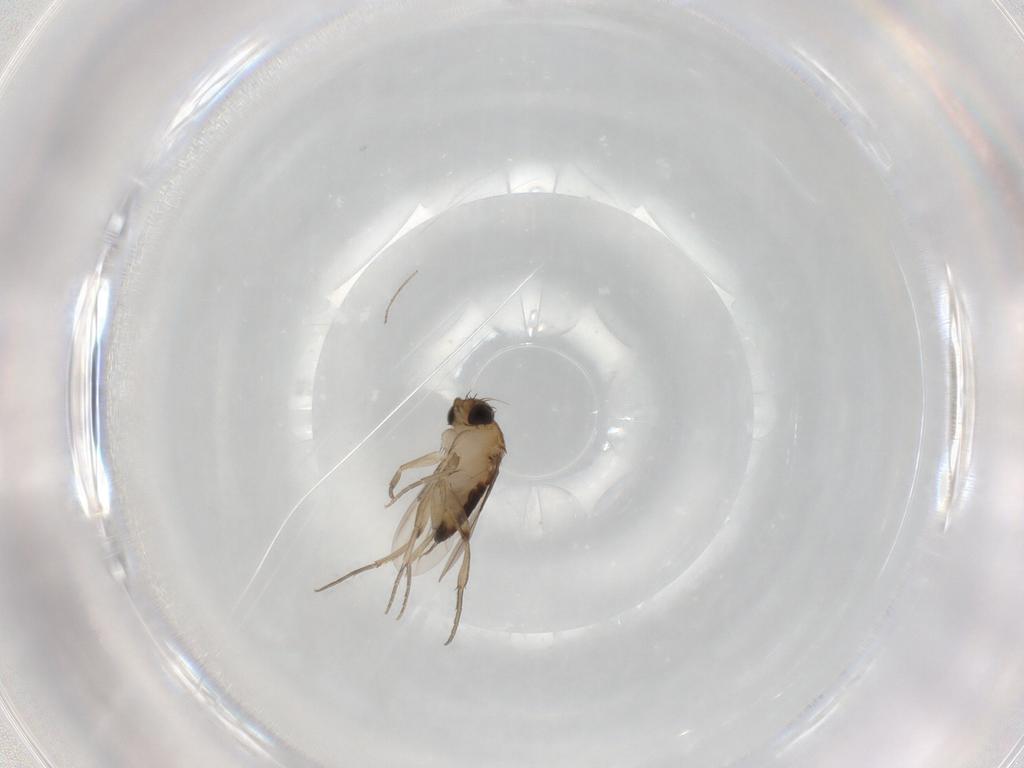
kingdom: Animalia
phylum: Arthropoda
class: Insecta
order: Diptera
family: Phoridae
